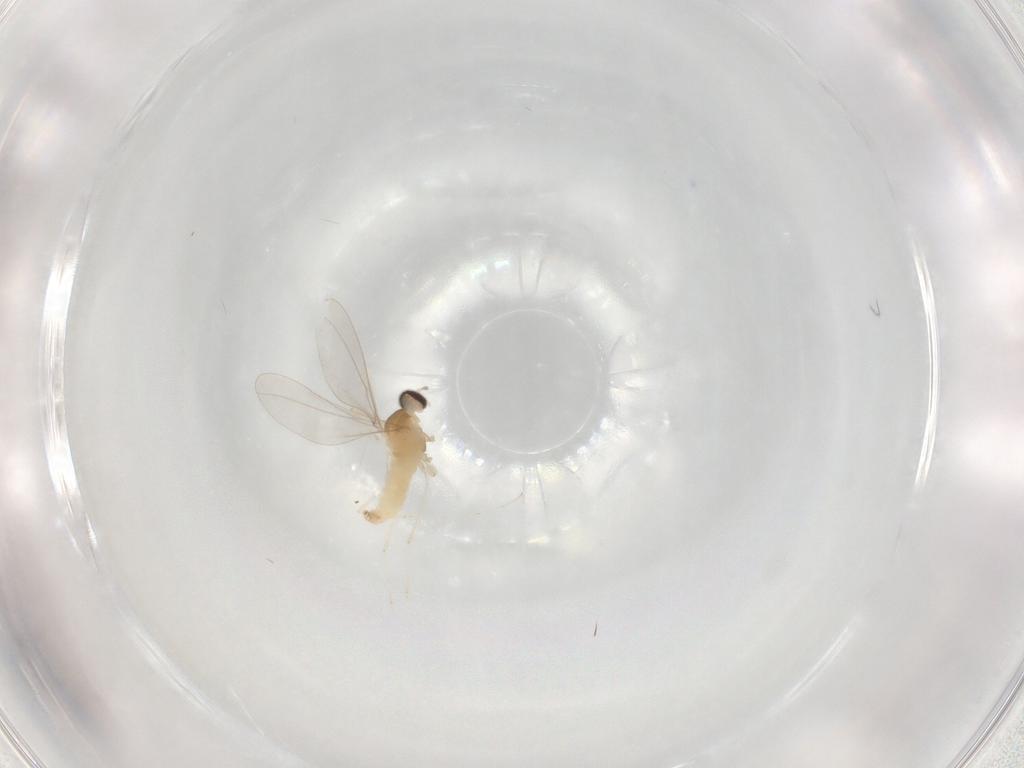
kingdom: Animalia
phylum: Arthropoda
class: Insecta
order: Diptera
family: Cecidomyiidae
